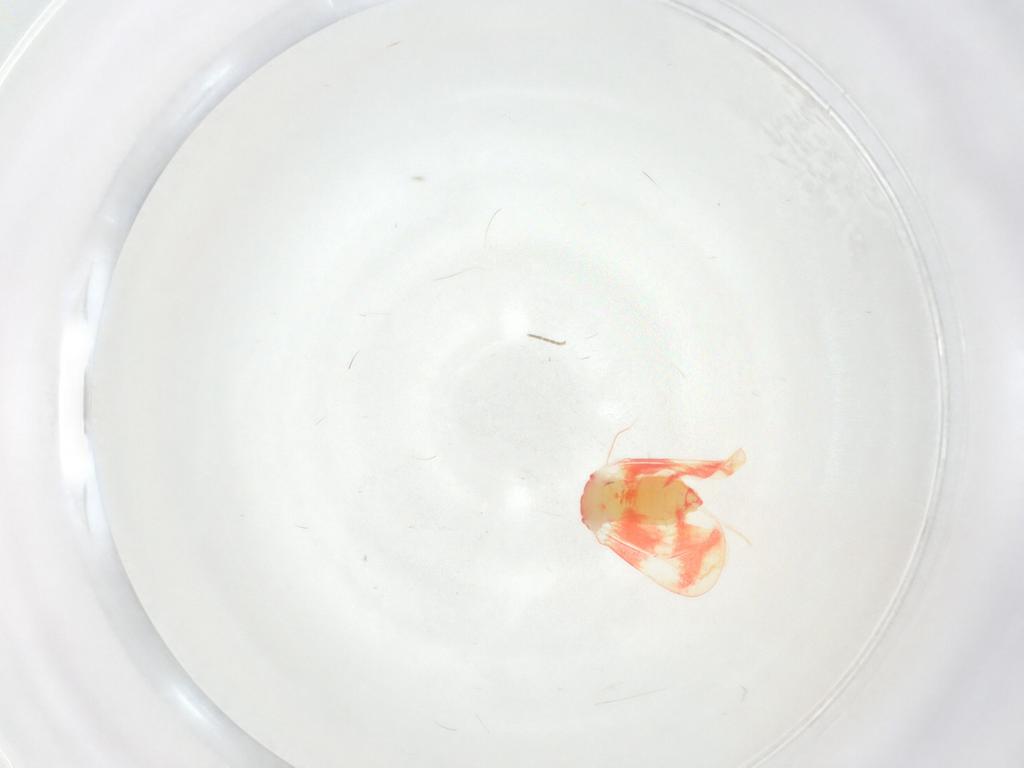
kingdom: Animalia
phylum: Arthropoda
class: Insecta
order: Hemiptera
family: Aleyrodidae
